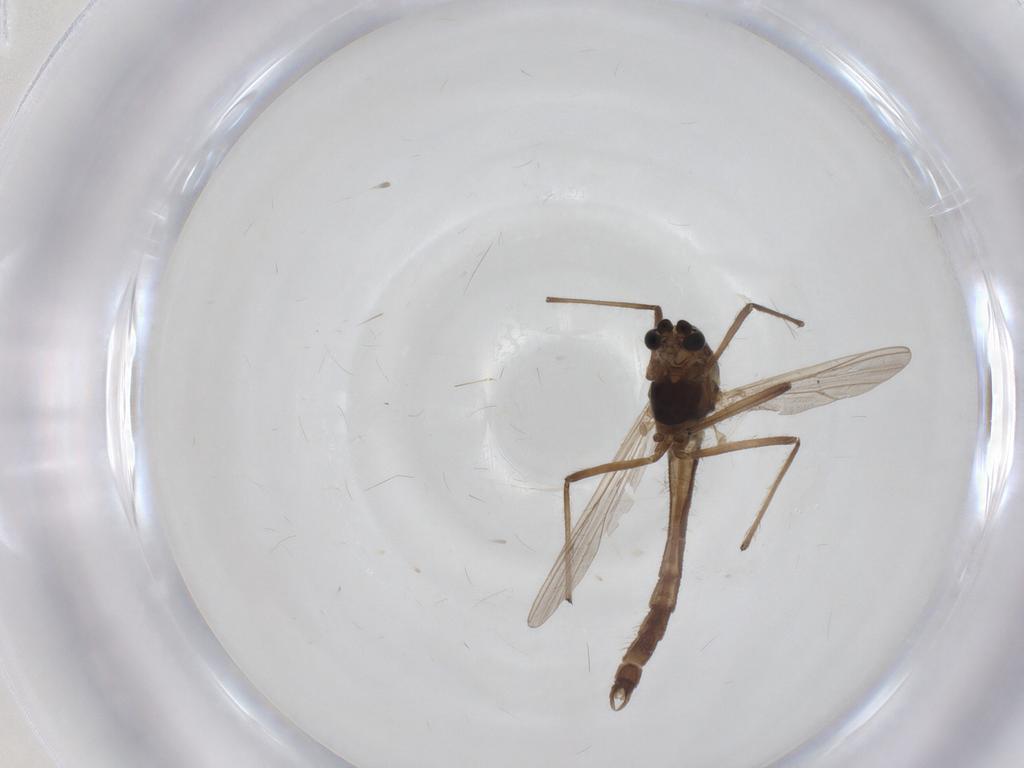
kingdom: Animalia
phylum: Arthropoda
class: Insecta
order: Diptera
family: Chironomidae
